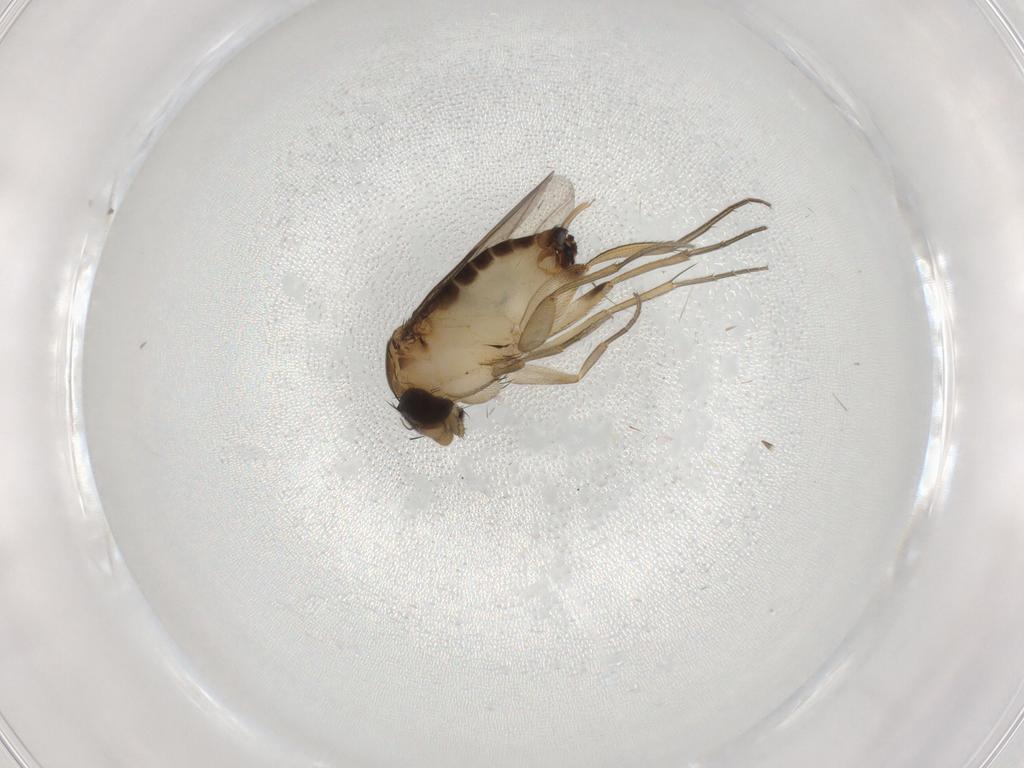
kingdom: Animalia
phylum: Arthropoda
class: Insecta
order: Diptera
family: Phoridae
